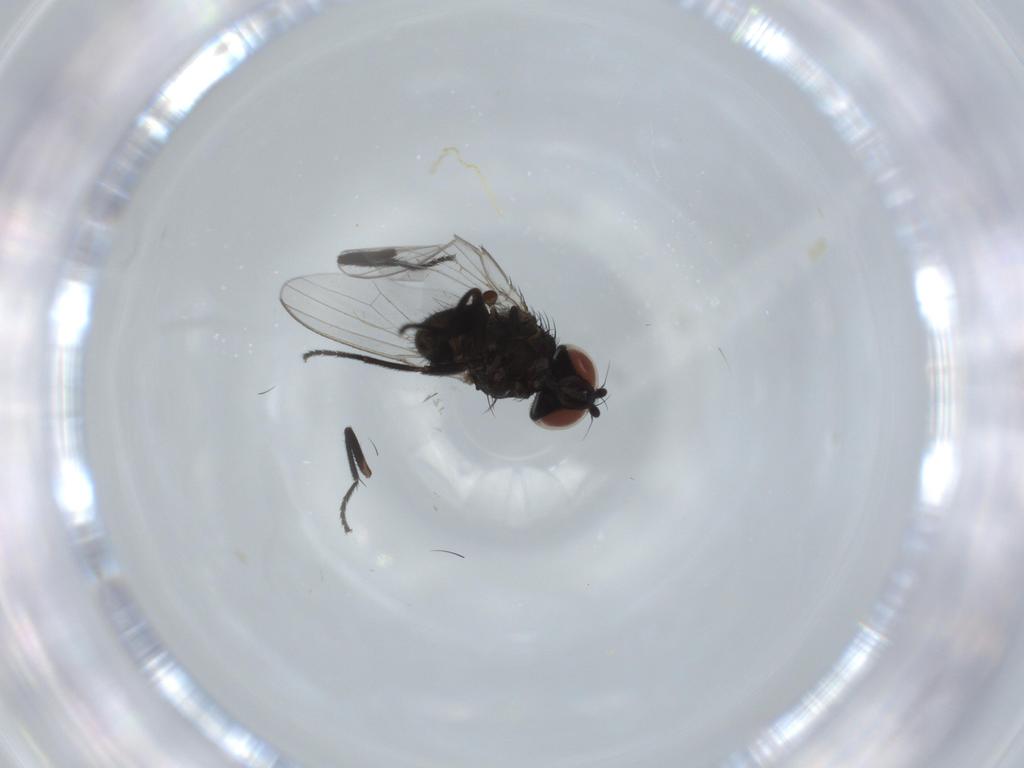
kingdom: Animalia
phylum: Arthropoda
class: Insecta
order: Diptera
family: Milichiidae
